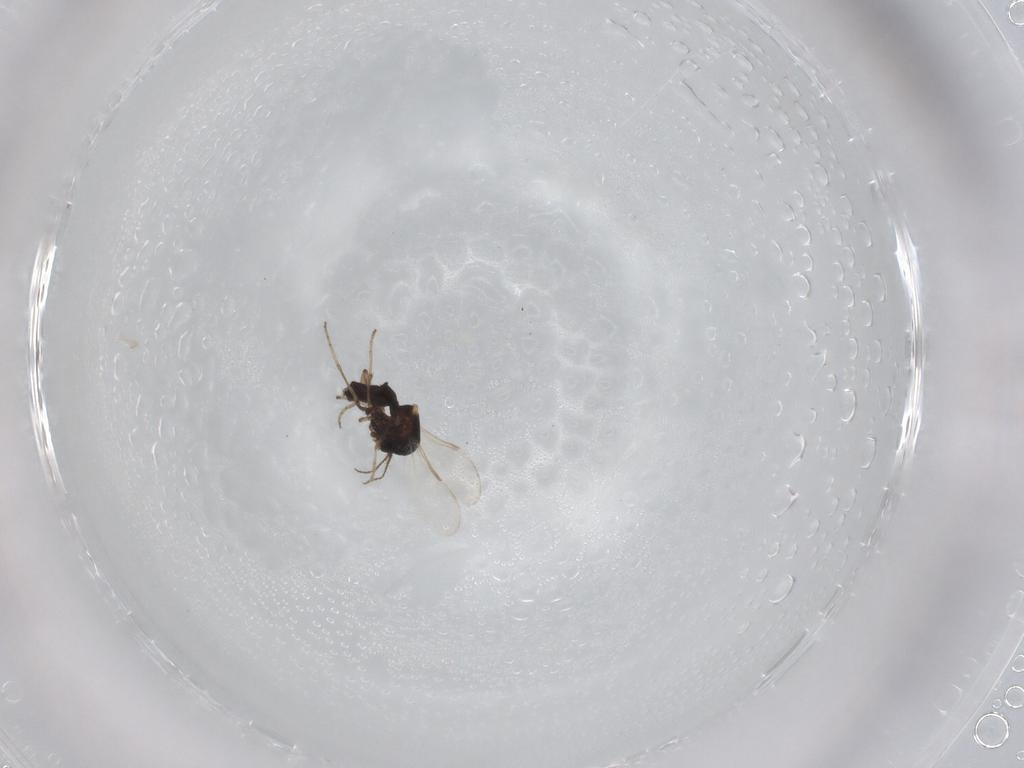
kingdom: Animalia
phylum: Arthropoda
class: Insecta
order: Diptera
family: Ceratopogonidae
